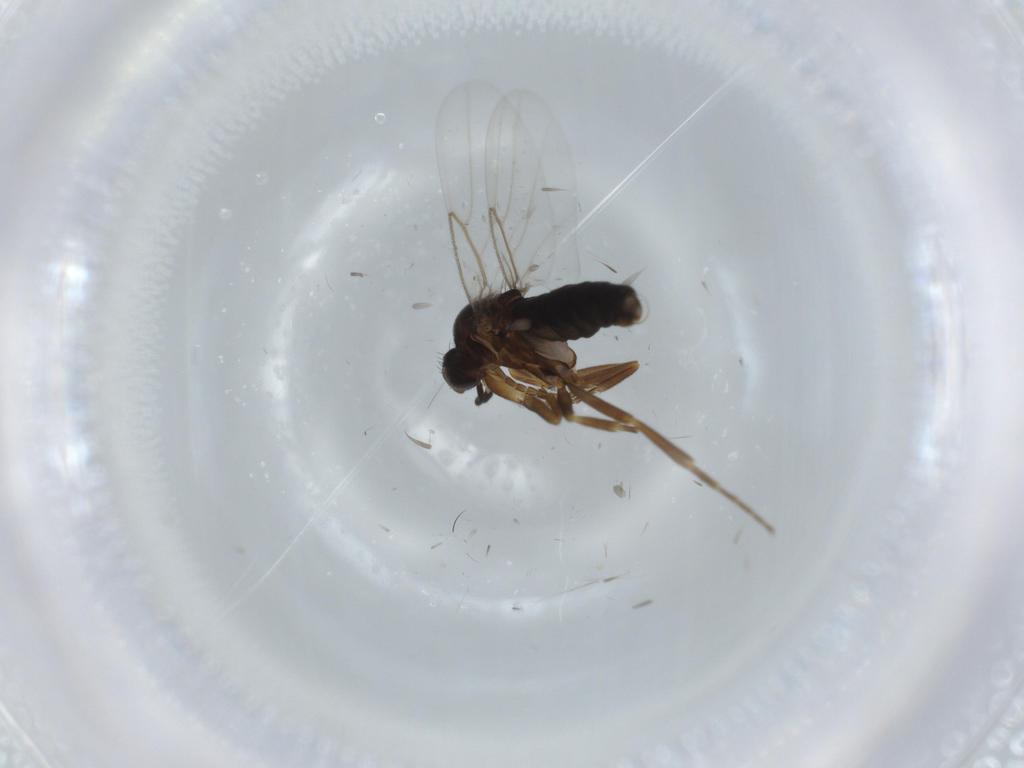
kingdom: Animalia
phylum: Arthropoda
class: Insecta
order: Diptera
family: Phoridae
